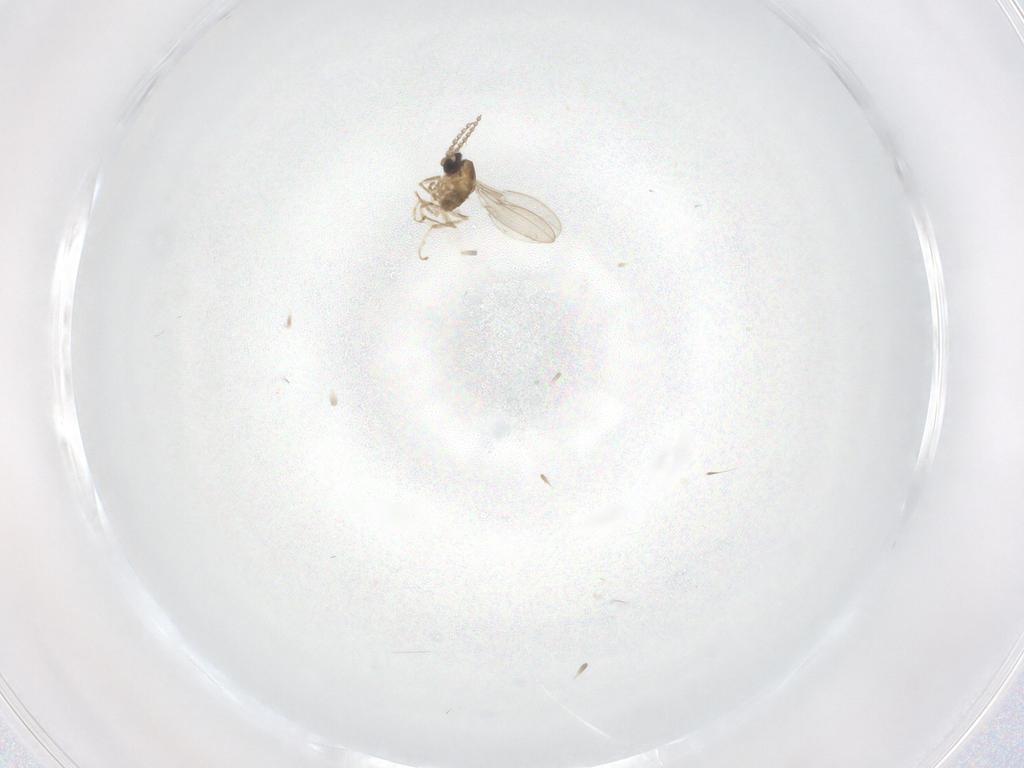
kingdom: Animalia
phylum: Arthropoda
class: Insecta
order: Diptera
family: Cecidomyiidae
